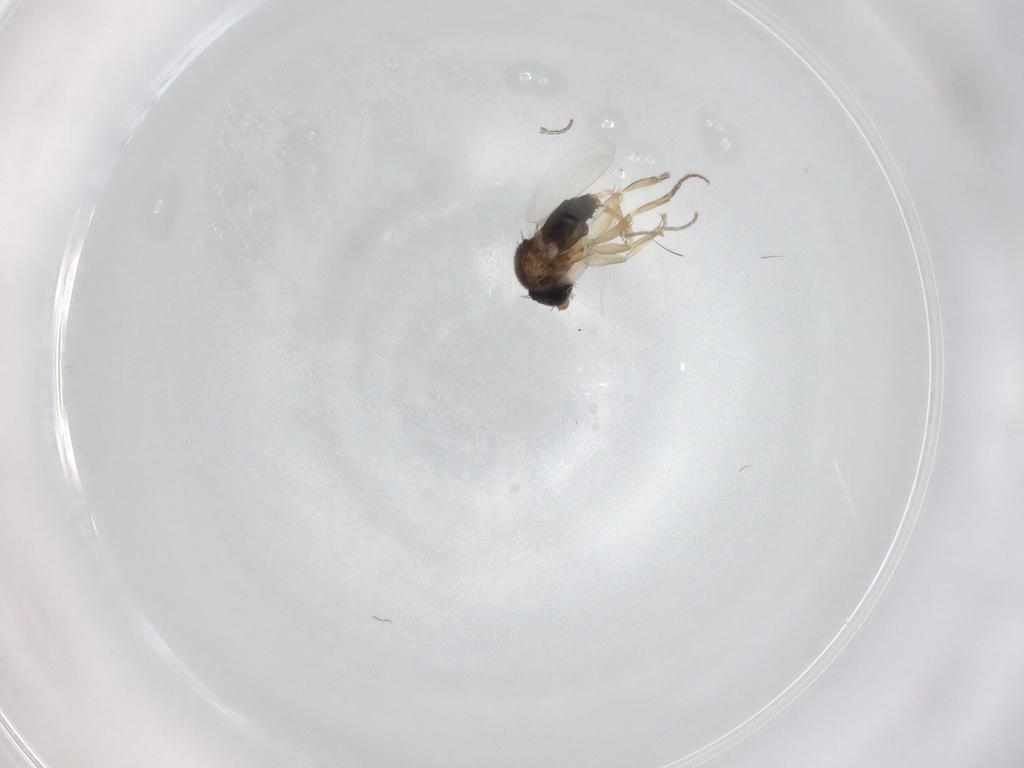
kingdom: Animalia
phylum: Arthropoda
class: Insecta
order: Diptera
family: Phoridae
